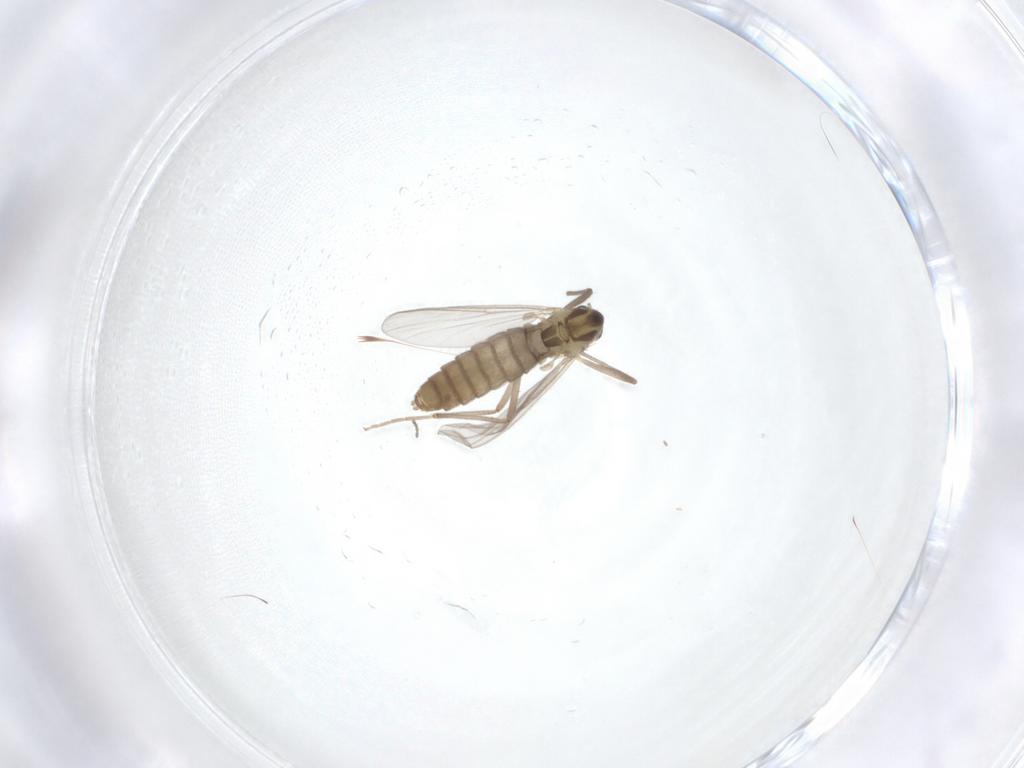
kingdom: Animalia
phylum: Arthropoda
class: Insecta
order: Diptera
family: Chironomidae
